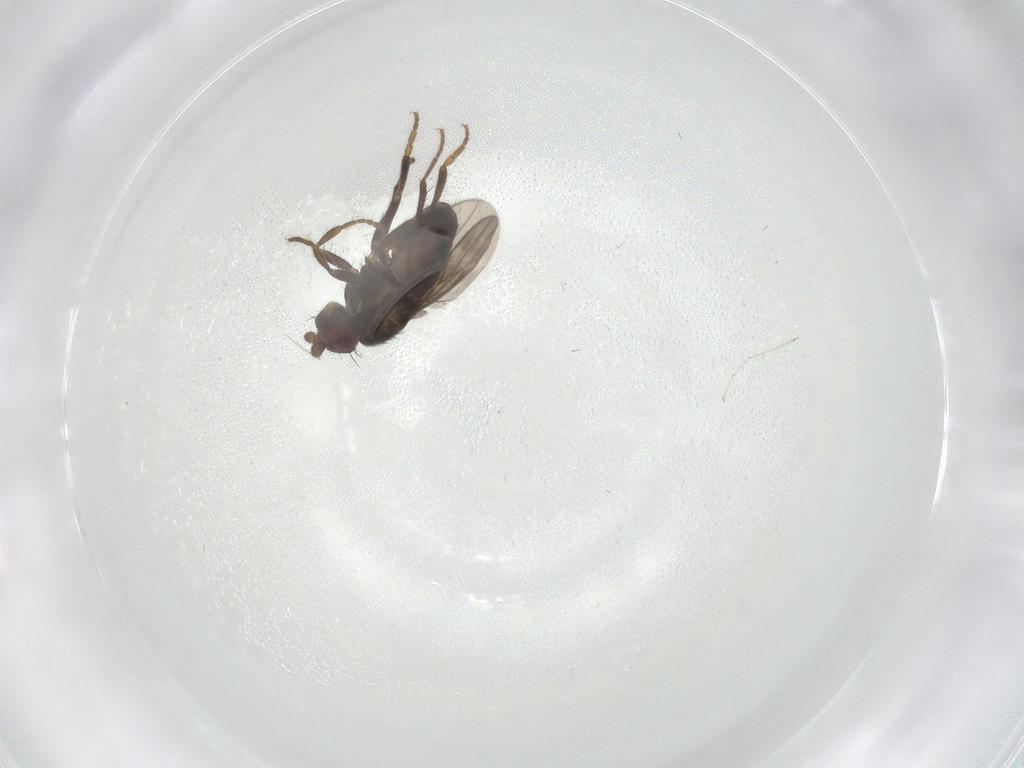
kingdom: Animalia
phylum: Arthropoda
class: Insecta
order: Diptera
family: Sphaeroceridae
